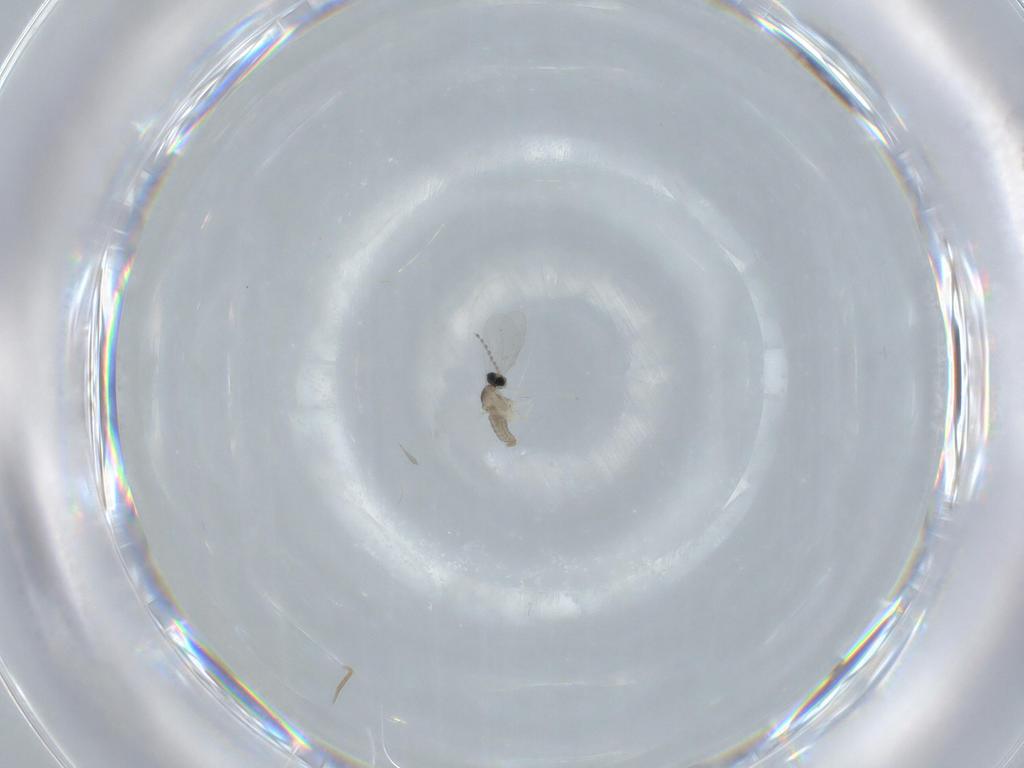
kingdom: Animalia
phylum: Arthropoda
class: Insecta
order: Diptera
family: Cecidomyiidae
